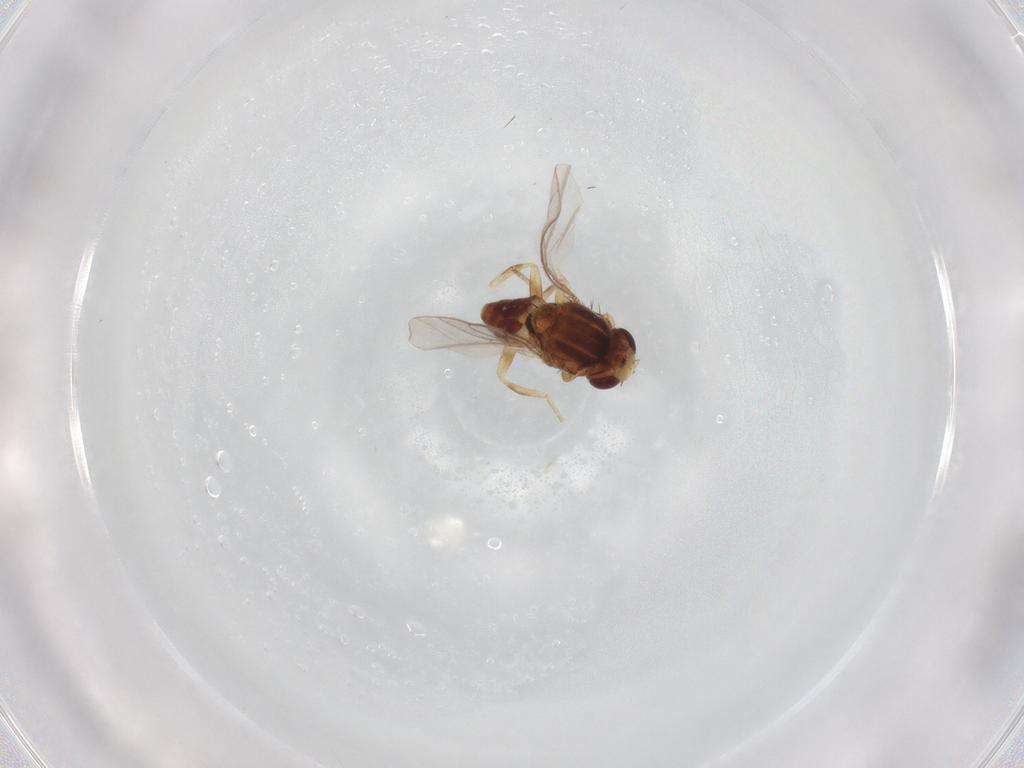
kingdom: Animalia
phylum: Arthropoda
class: Insecta
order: Diptera
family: Chloropidae
